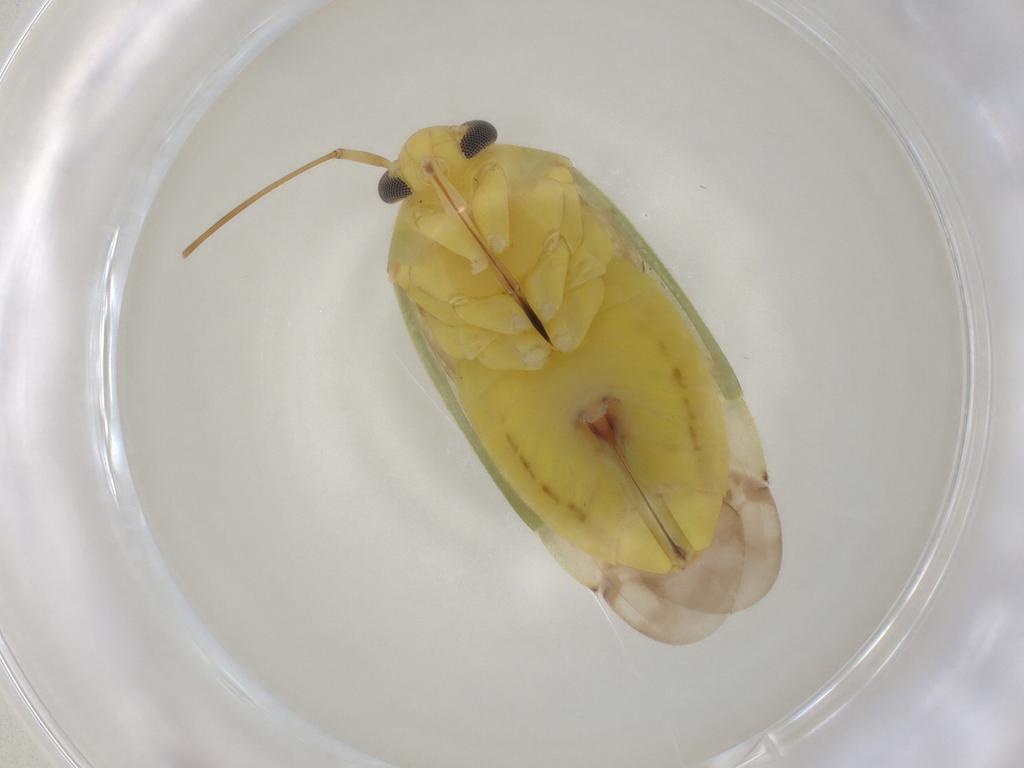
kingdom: Animalia
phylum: Arthropoda
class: Insecta
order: Hemiptera
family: Miridae
